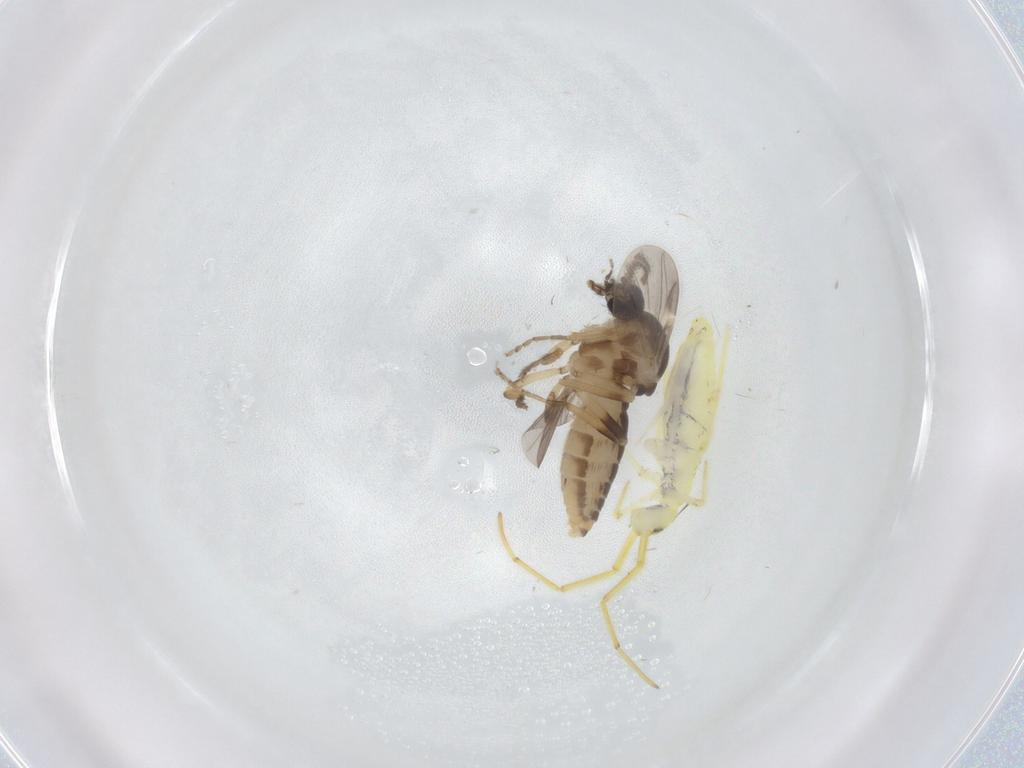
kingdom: Animalia
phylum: Arthropoda
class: Insecta
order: Diptera
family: Ceratopogonidae
